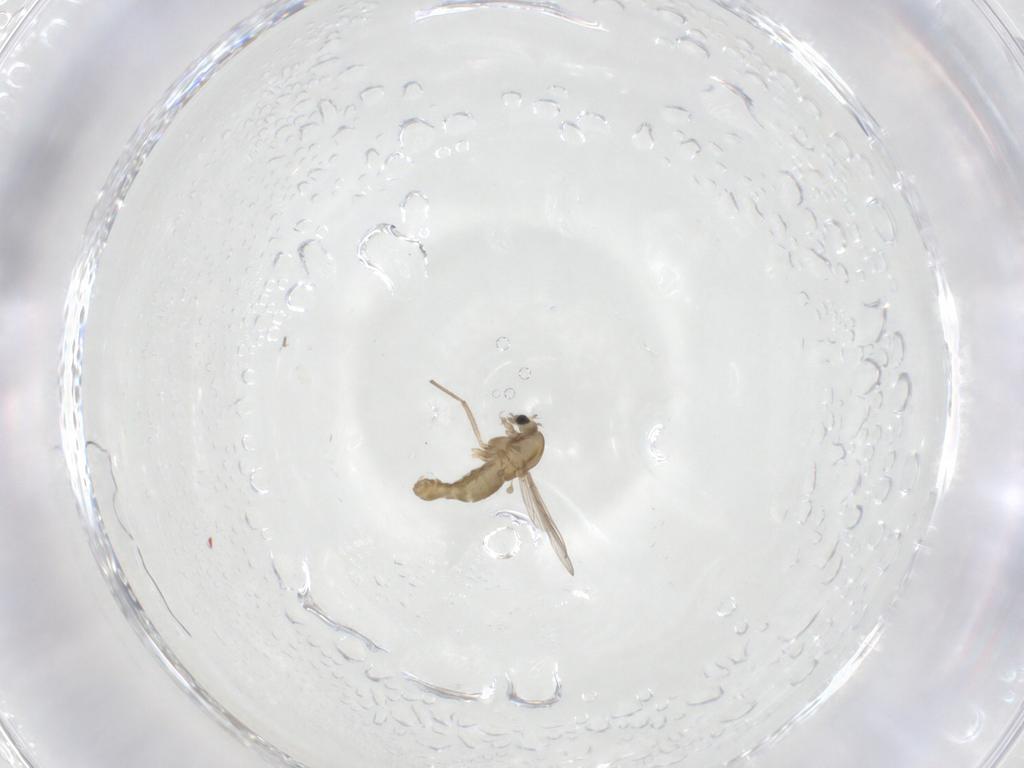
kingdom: Animalia
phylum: Arthropoda
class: Insecta
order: Diptera
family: Chironomidae
